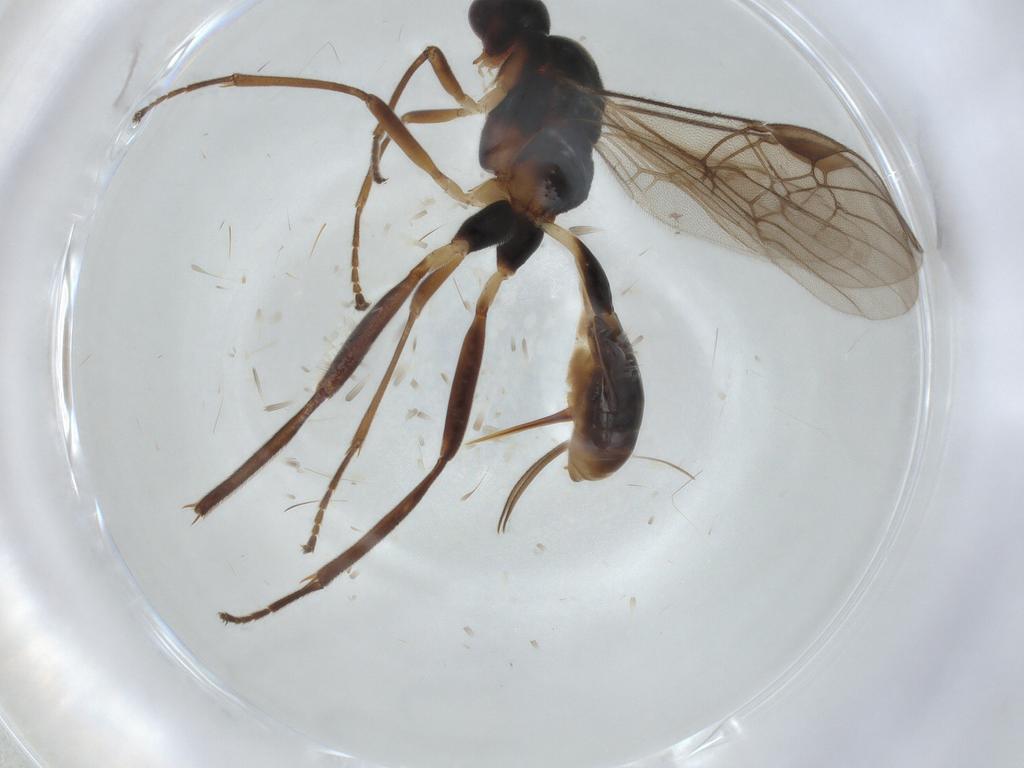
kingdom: Animalia
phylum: Arthropoda
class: Insecta
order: Hymenoptera
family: Braconidae
